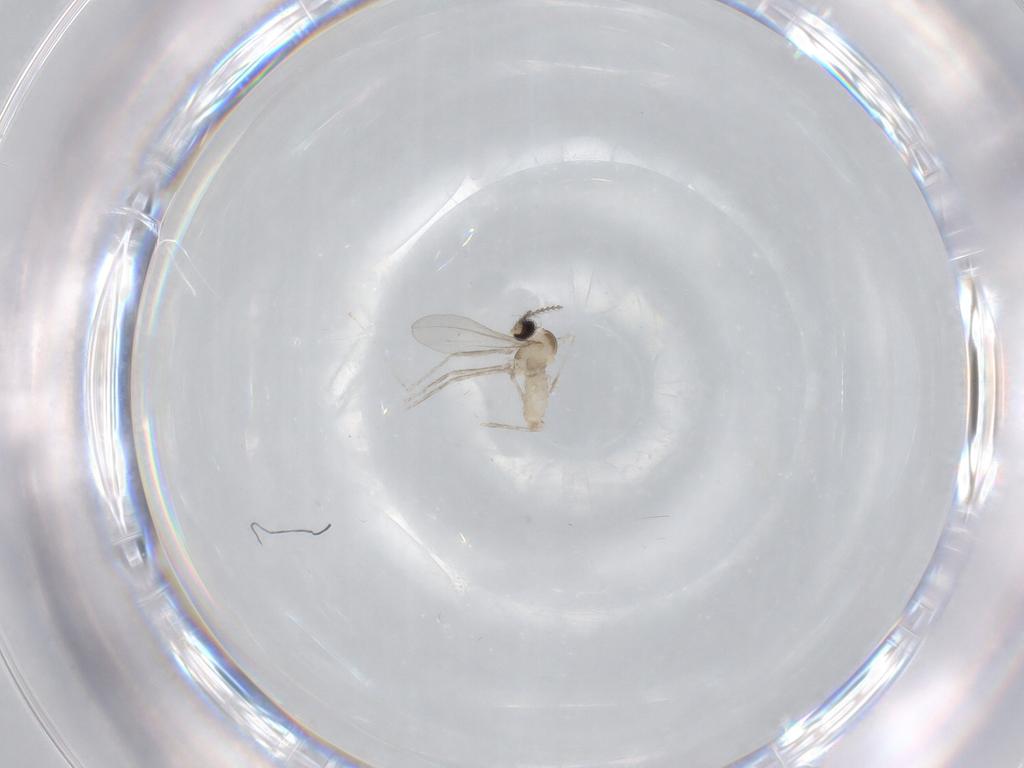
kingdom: Animalia
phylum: Arthropoda
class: Insecta
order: Diptera
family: Cecidomyiidae
